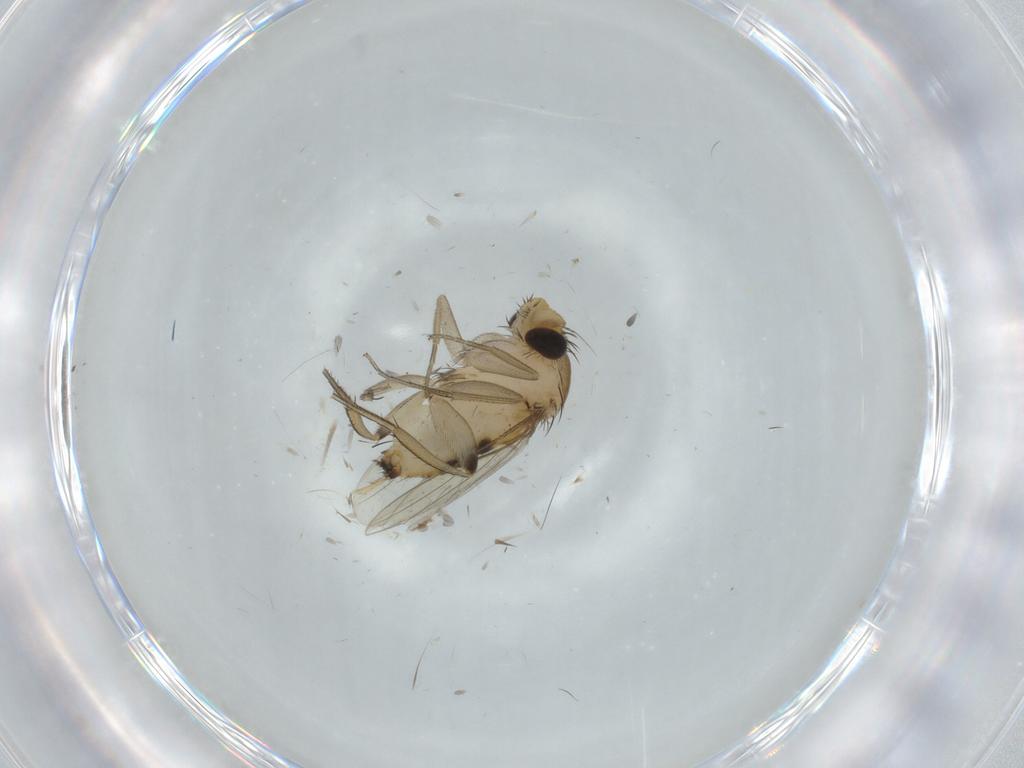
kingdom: Animalia
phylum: Arthropoda
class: Insecta
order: Diptera
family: Phoridae
